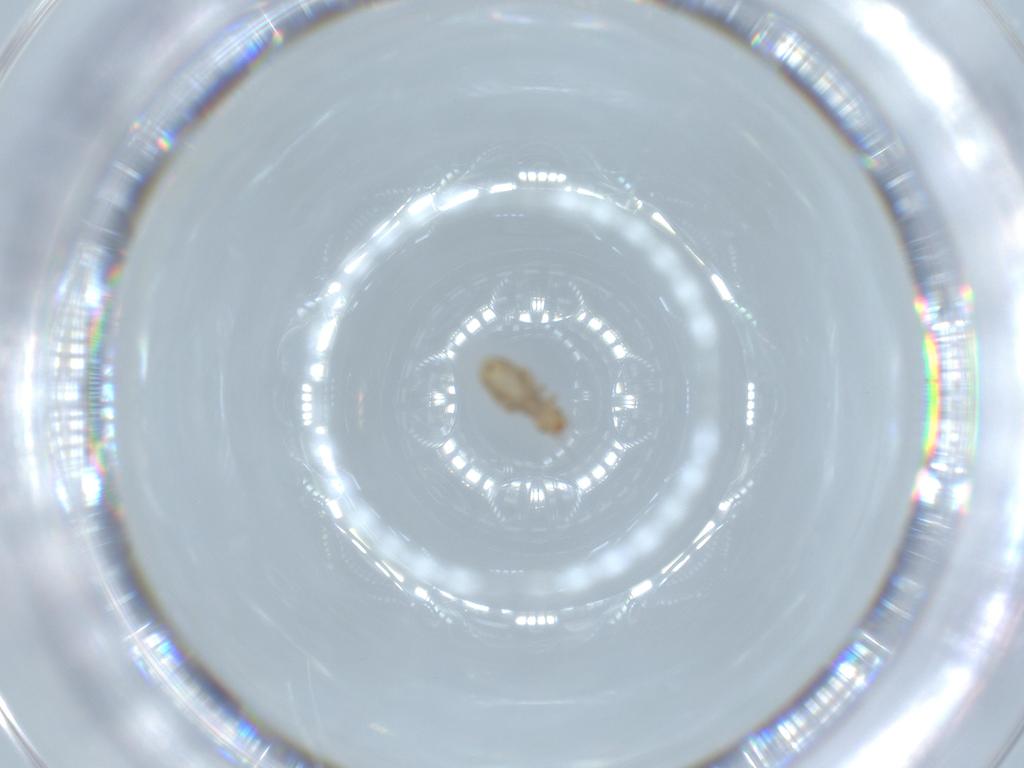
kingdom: Animalia
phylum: Arthropoda
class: Insecta
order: Psocodea
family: Liposcelididae
